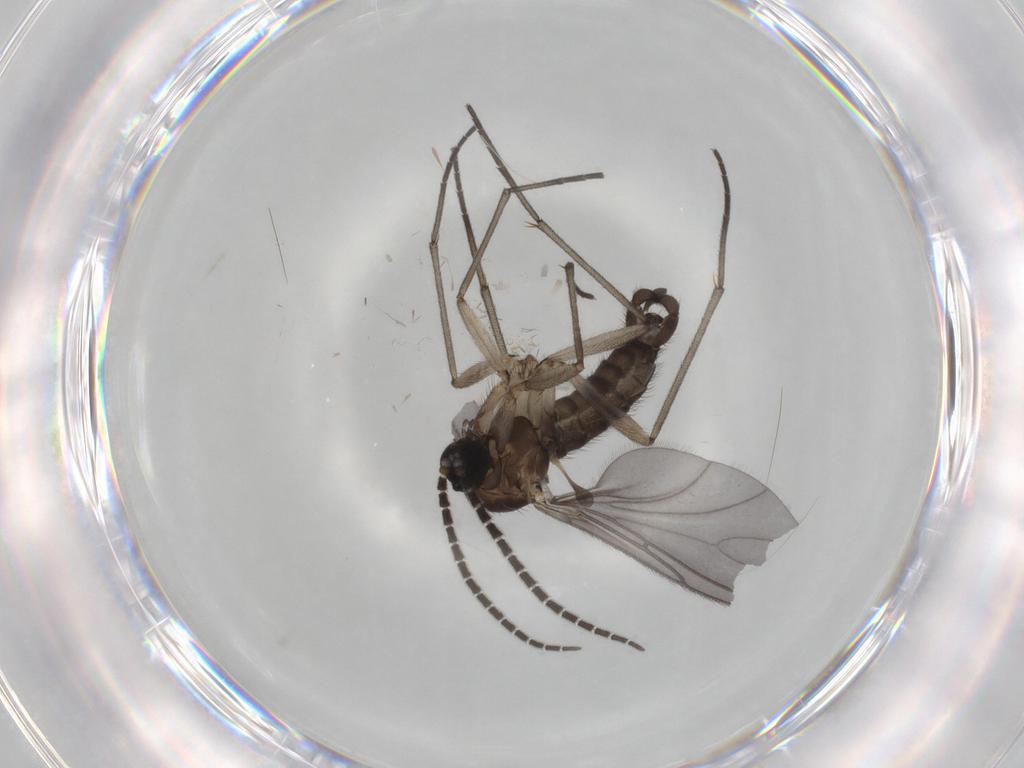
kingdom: Animalia
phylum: Arthropoda
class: Insecta
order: Diptera
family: Sciaridae
